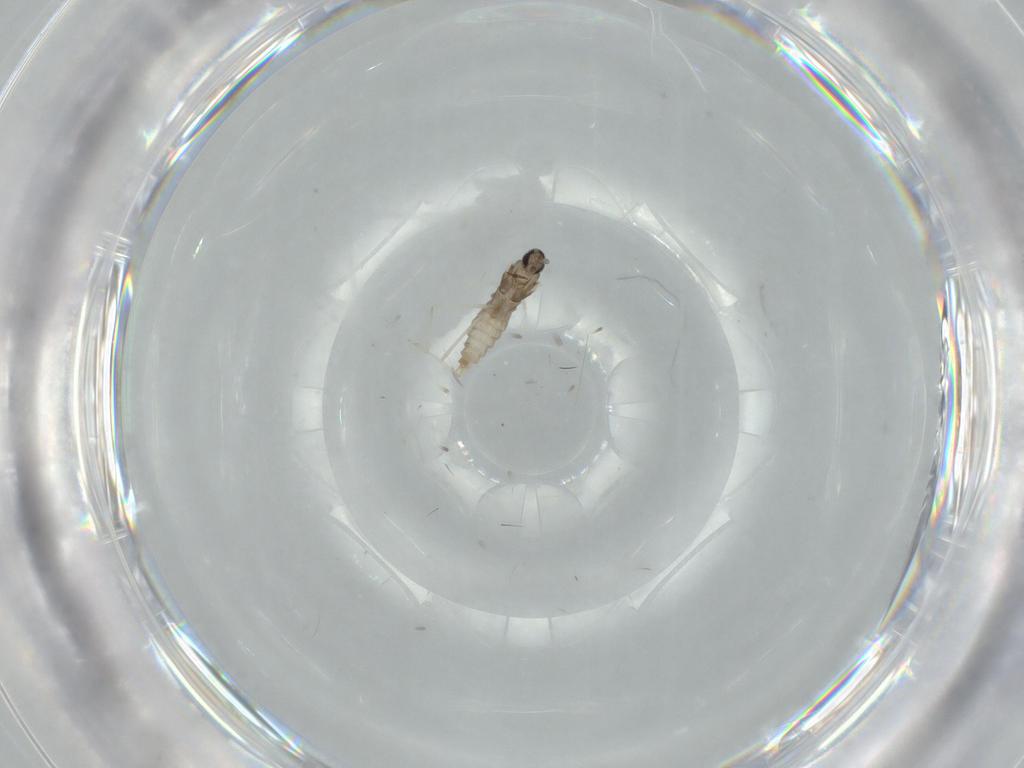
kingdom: Animalia
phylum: Arthropoda
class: Insecta
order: Diptera
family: Cecidomyiidae
